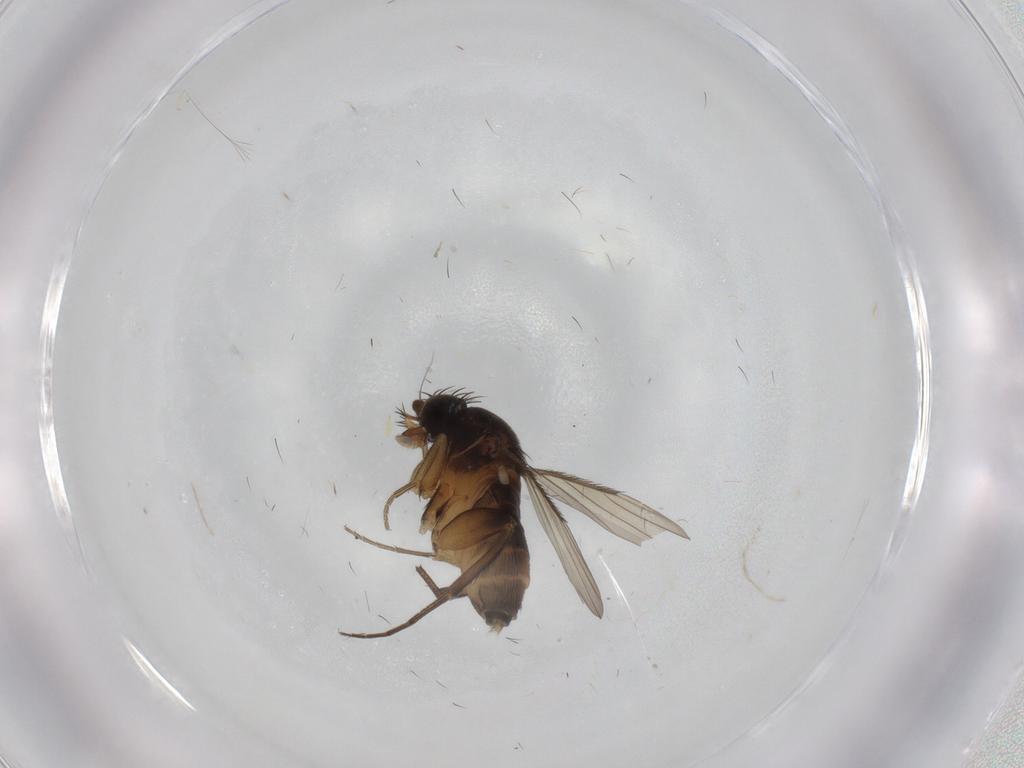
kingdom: Animalia
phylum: Arthropoda
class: Insecta
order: Diptera
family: Phoridae
